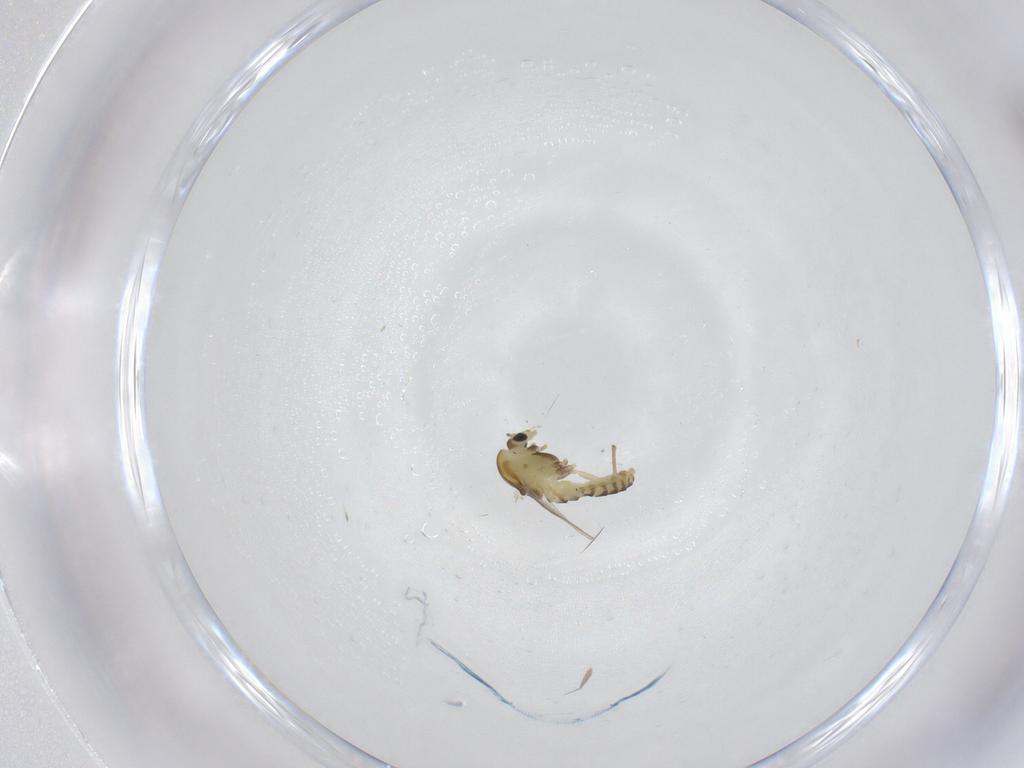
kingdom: Animalia
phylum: Arthropoda
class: Insecta
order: Diptera
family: Chironomidae
